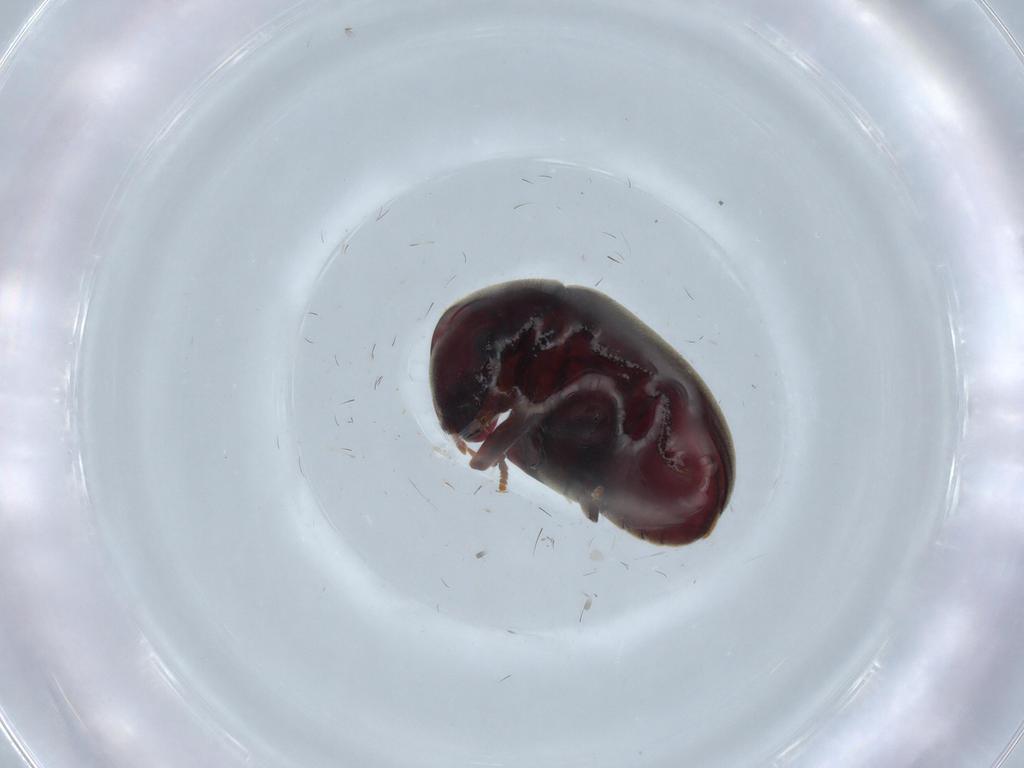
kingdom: Animalia
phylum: Arthropoda
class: Insecta
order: Coleoptera
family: Ptinidae
